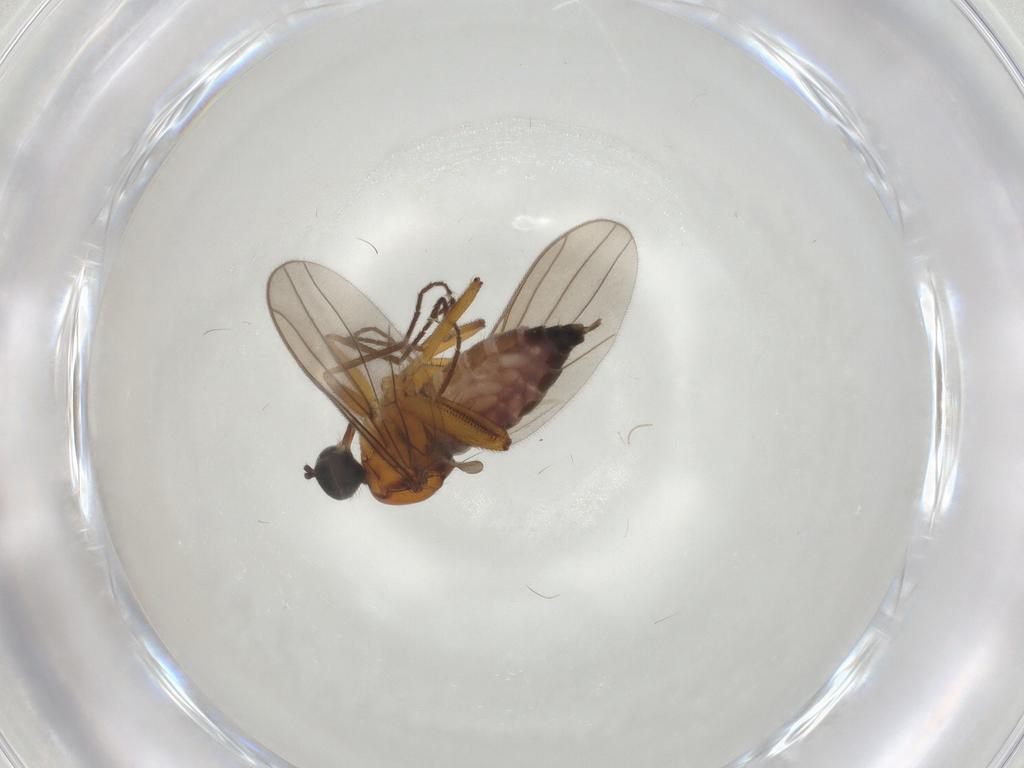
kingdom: Animalia
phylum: Arthropoda
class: Insecta
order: Diptera
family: Hybotidae
